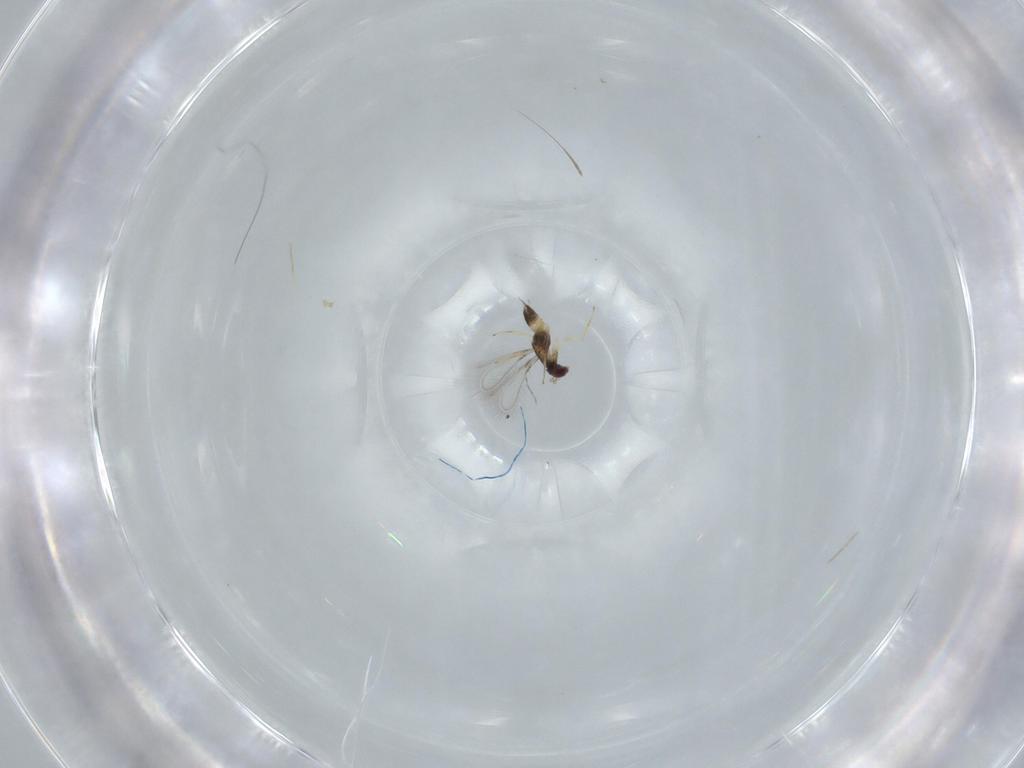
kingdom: Animalia
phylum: Arthropoda
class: Insecta
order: Hymenoptera
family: Mymaridae
